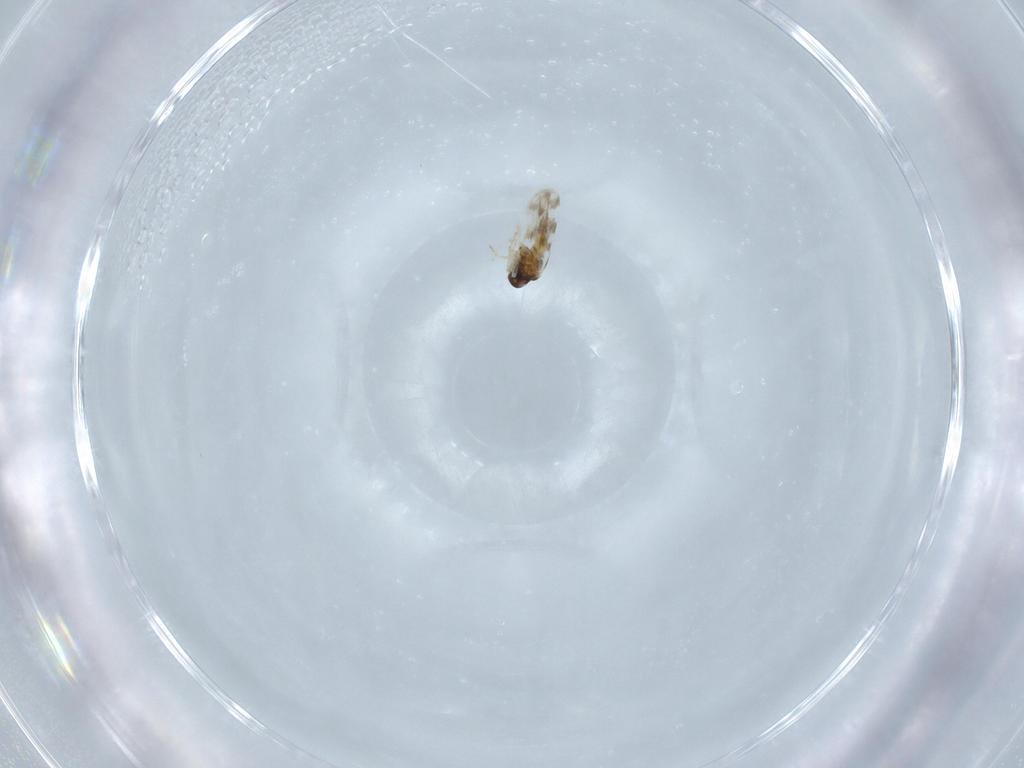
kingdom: Animalia
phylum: Arthropoda
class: Insecta
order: Hemiptera
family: Aleyrodidae
